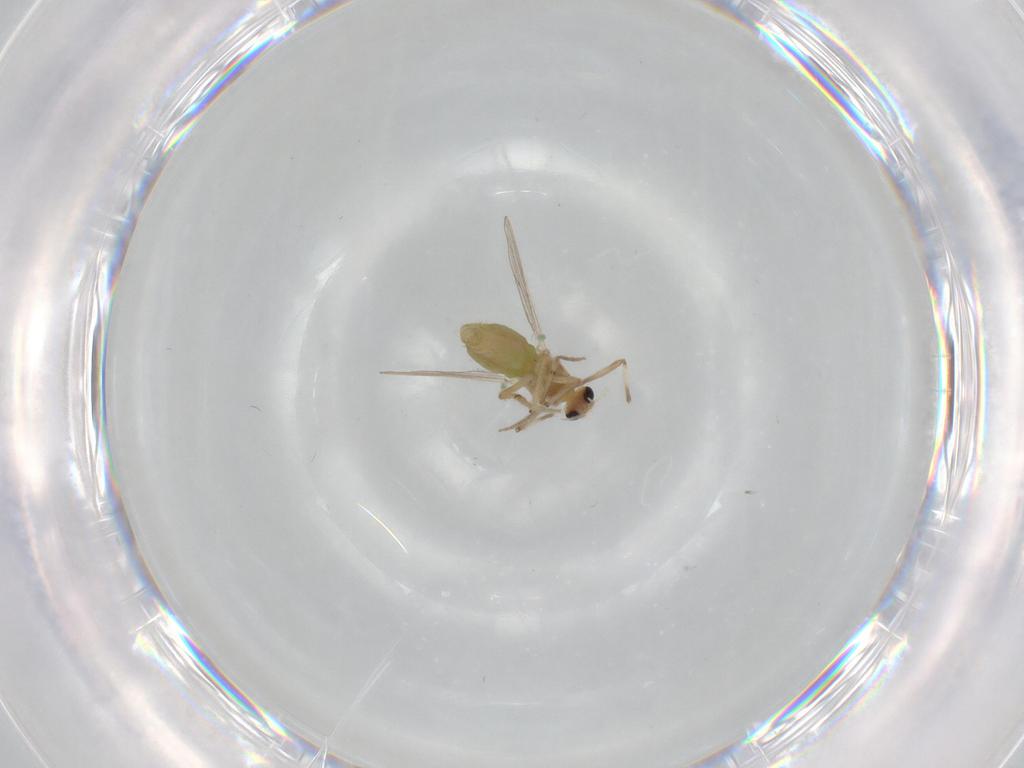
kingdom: Animalia
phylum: Arthropoda
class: Insecta
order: Diptera
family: Chironomidae
